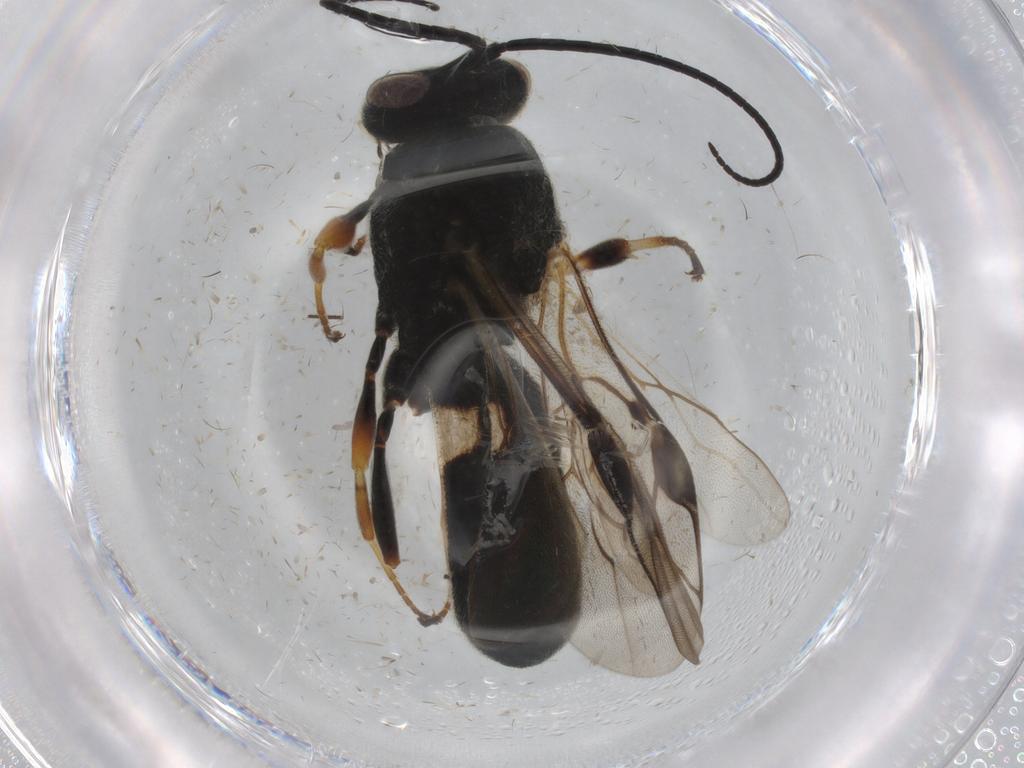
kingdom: Animalia
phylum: Arthropoda
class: Insecta
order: Hymenoptera
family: Braconidae
